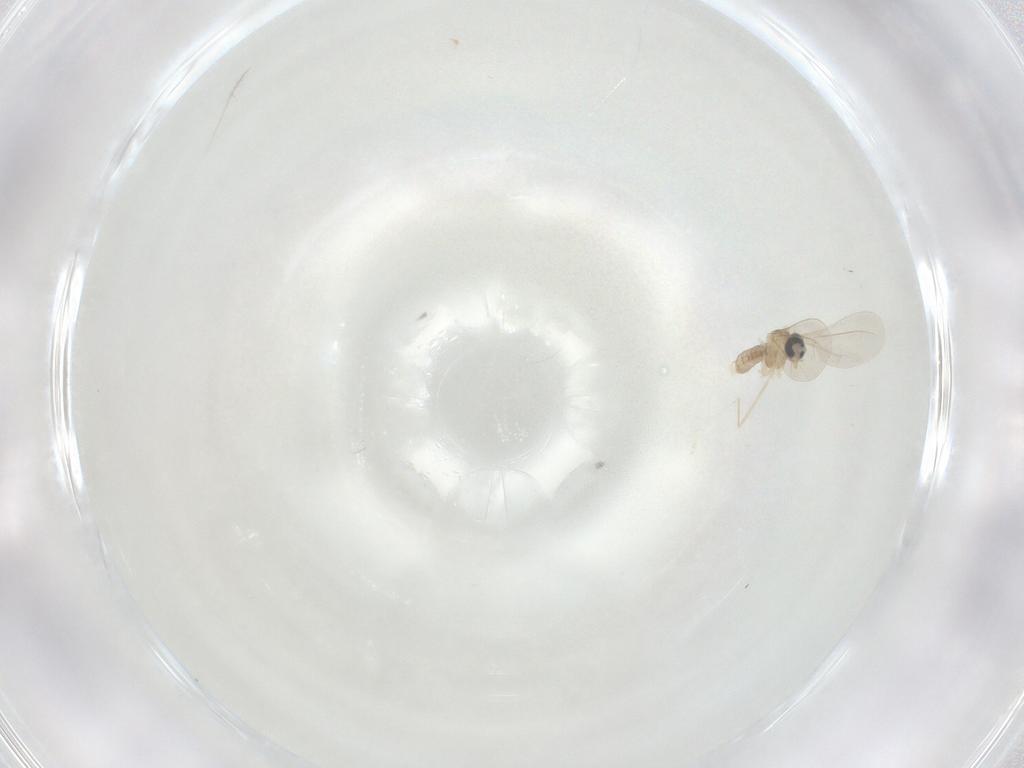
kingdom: Animalia
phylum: Arthropoda
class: Insecta
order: Diptera
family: Cecidomyiidae
